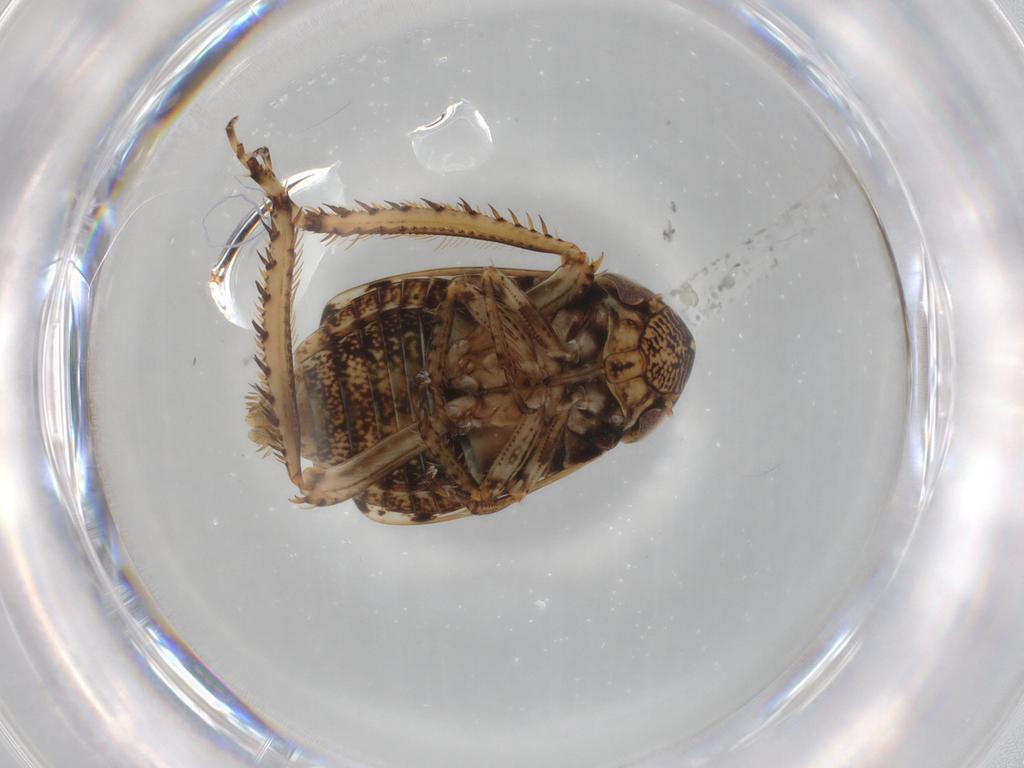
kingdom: Animalia
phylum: Arthropoda
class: Insecta
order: Hemiptera
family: Cicadellidae
